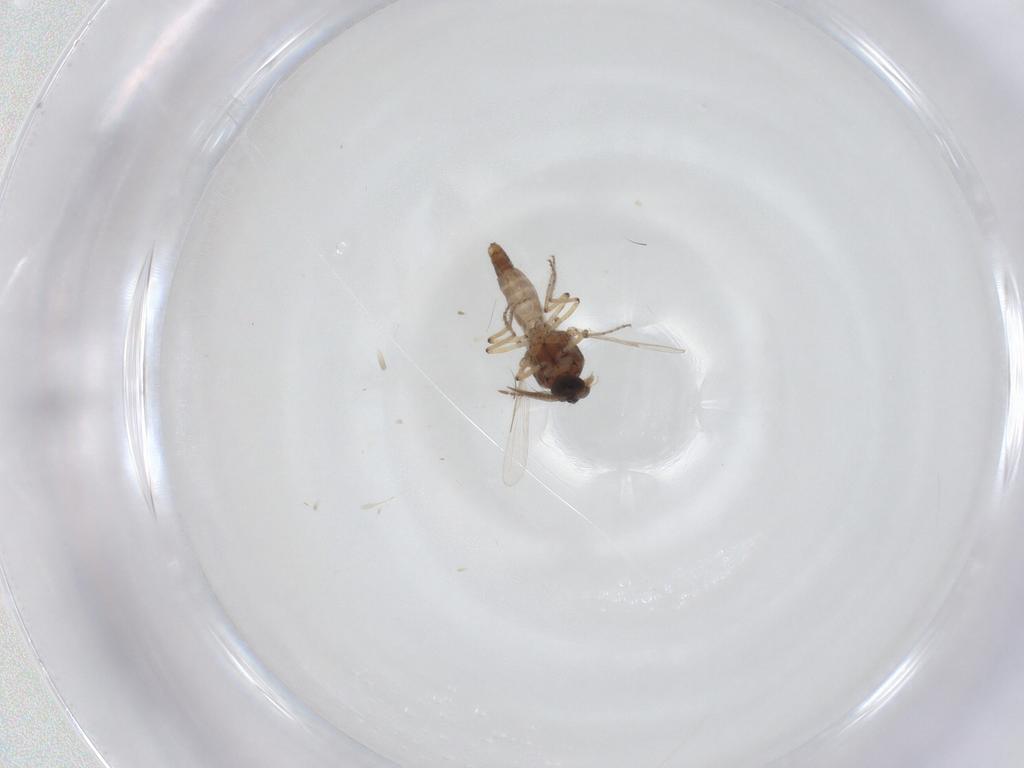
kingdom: Animalia
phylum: Arthropoda
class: Insecta
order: Diptera
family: Ceratopogonidae
